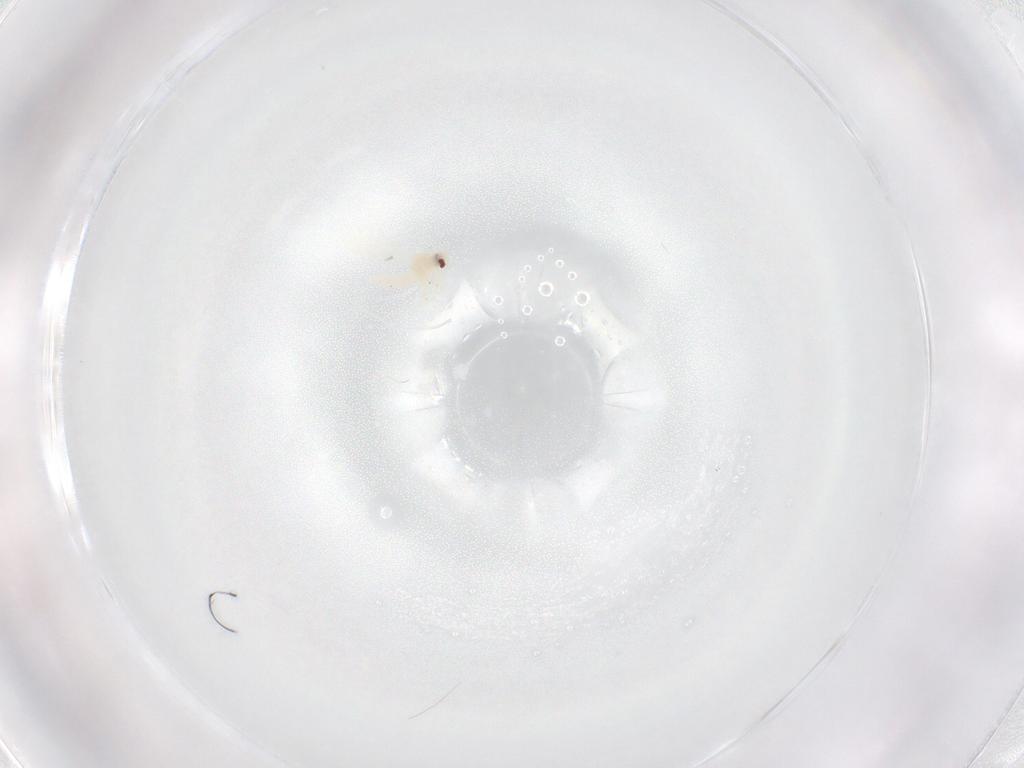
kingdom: Animalia
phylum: Arthropoda
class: Insecta
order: Hemiptera
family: Aleyrodidae
